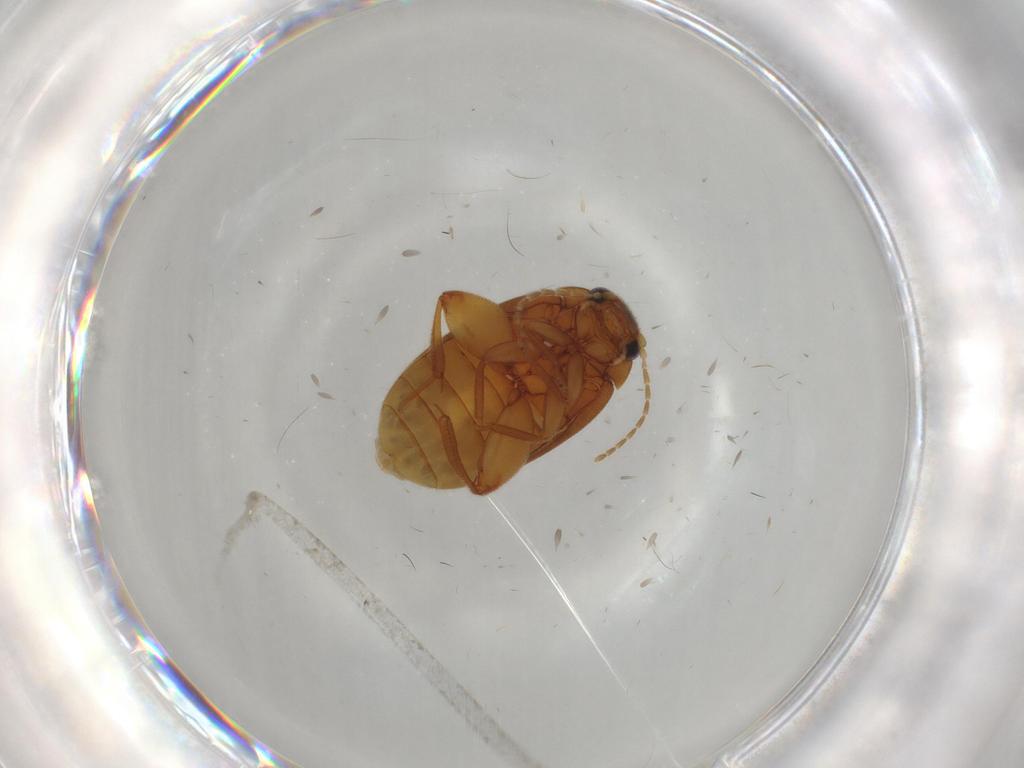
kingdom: Animalia
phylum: Arthropoda
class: Insecta
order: Coleoptera
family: Scirtidae
